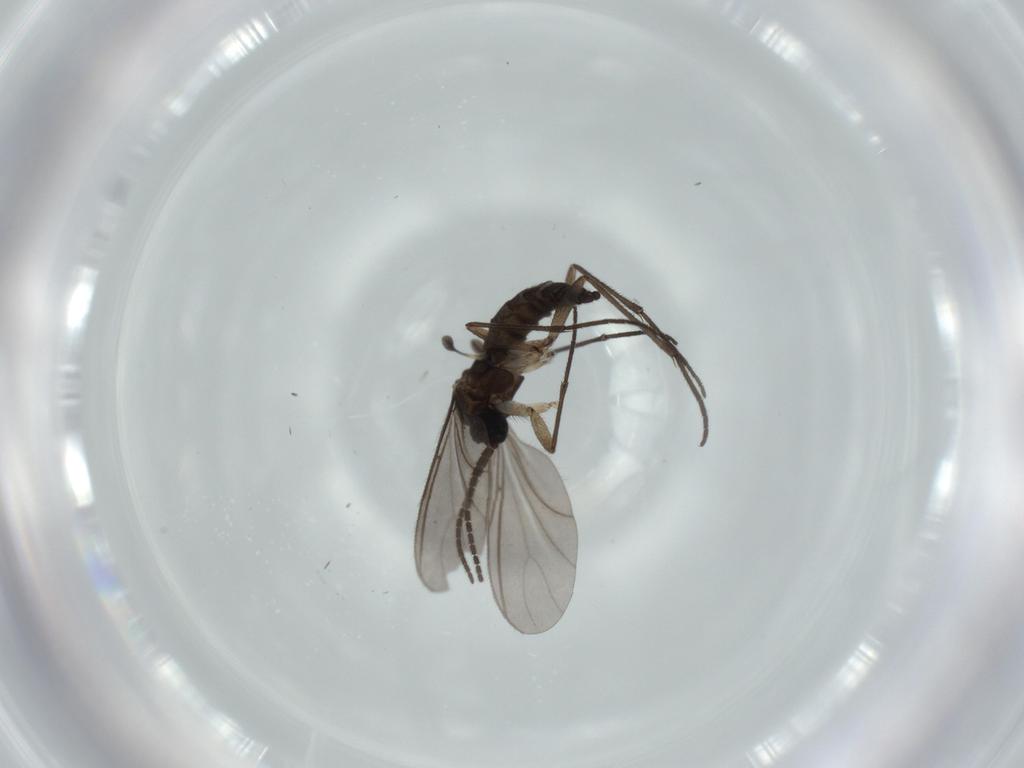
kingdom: Animalia
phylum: Arthropoda
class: Insecta
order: Diptera
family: Sciaridae
